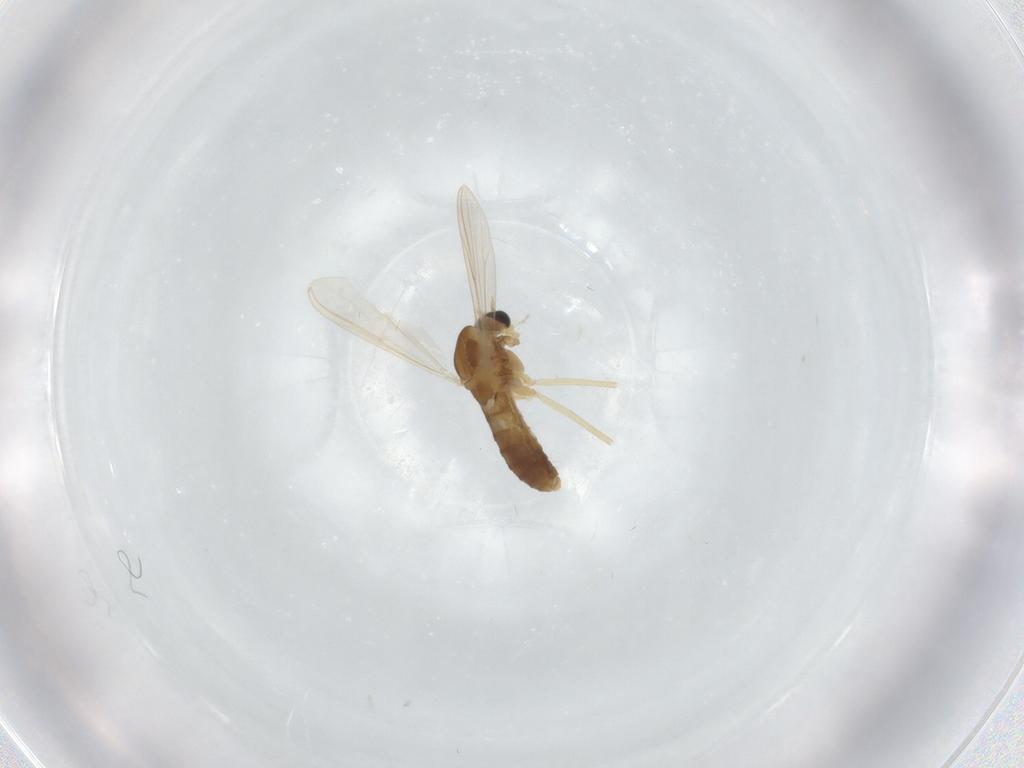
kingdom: Animalia
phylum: Arthropoda
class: Insecta
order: Diptera
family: Chironomidae
